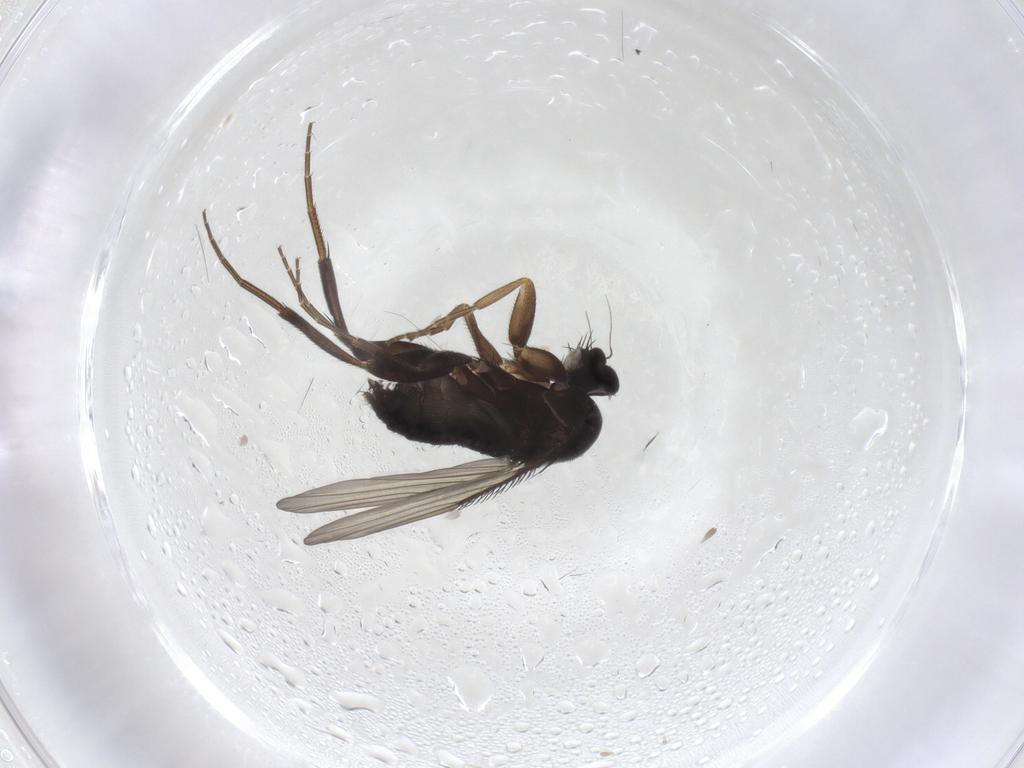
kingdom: Animalia
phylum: Arthropoda
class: Insecta
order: Diptera
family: Phoridae
